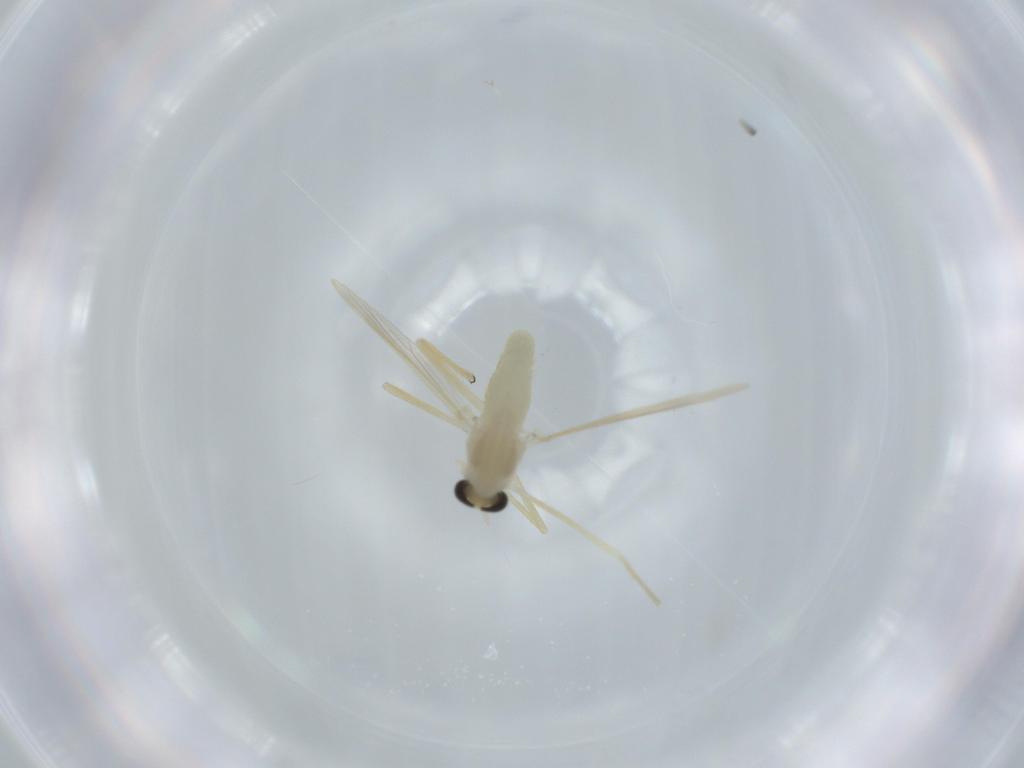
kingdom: Animalia
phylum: Arthropoda
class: Insecta
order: Diptera
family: Chironomidae
